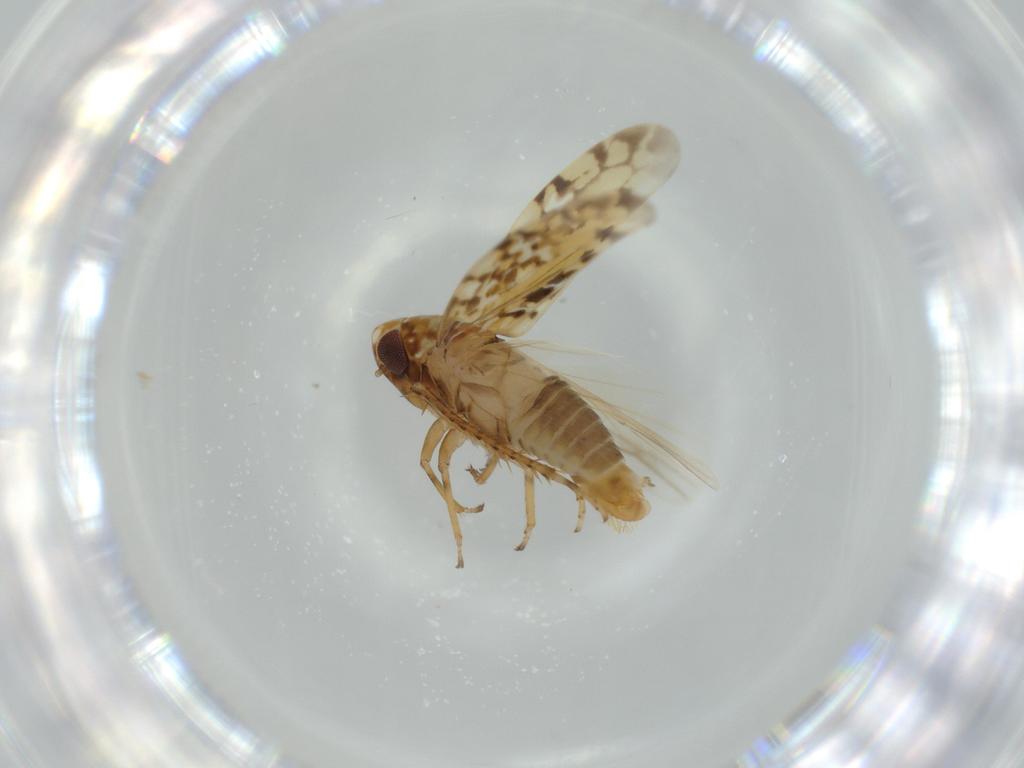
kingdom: Animalia
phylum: Arthropoda
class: Insecta
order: Hemiptera
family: Cicadellidae
